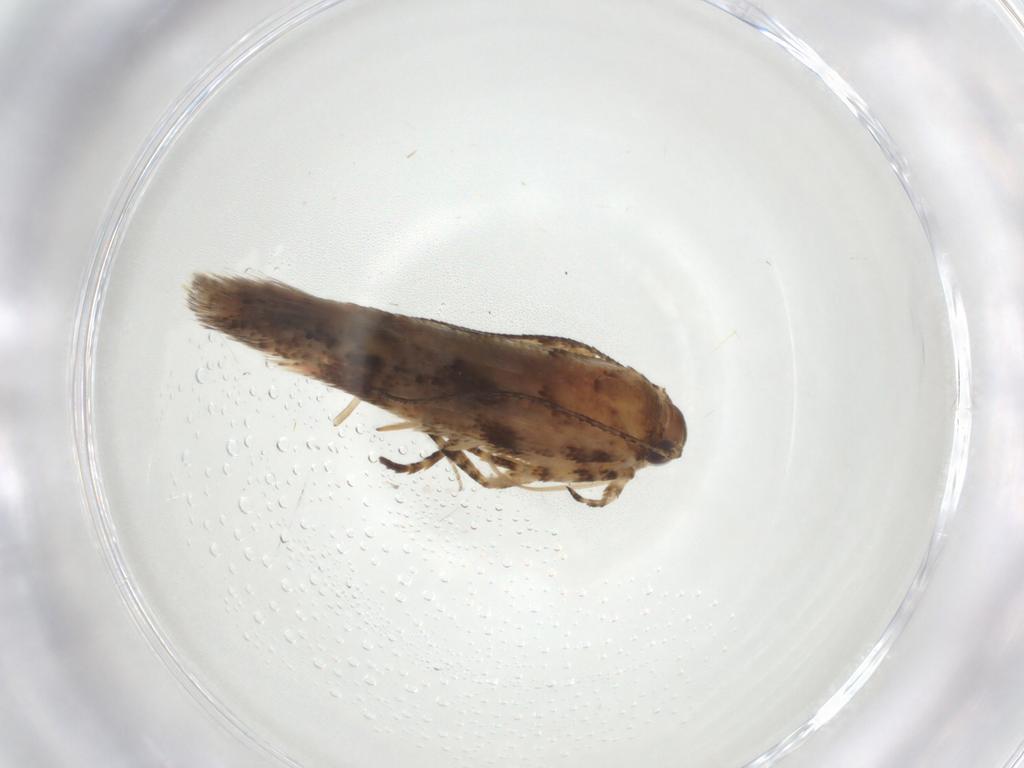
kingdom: Animalia
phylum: Arthropoda
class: Insecta
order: Lepidoptera
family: Gelechiidae
